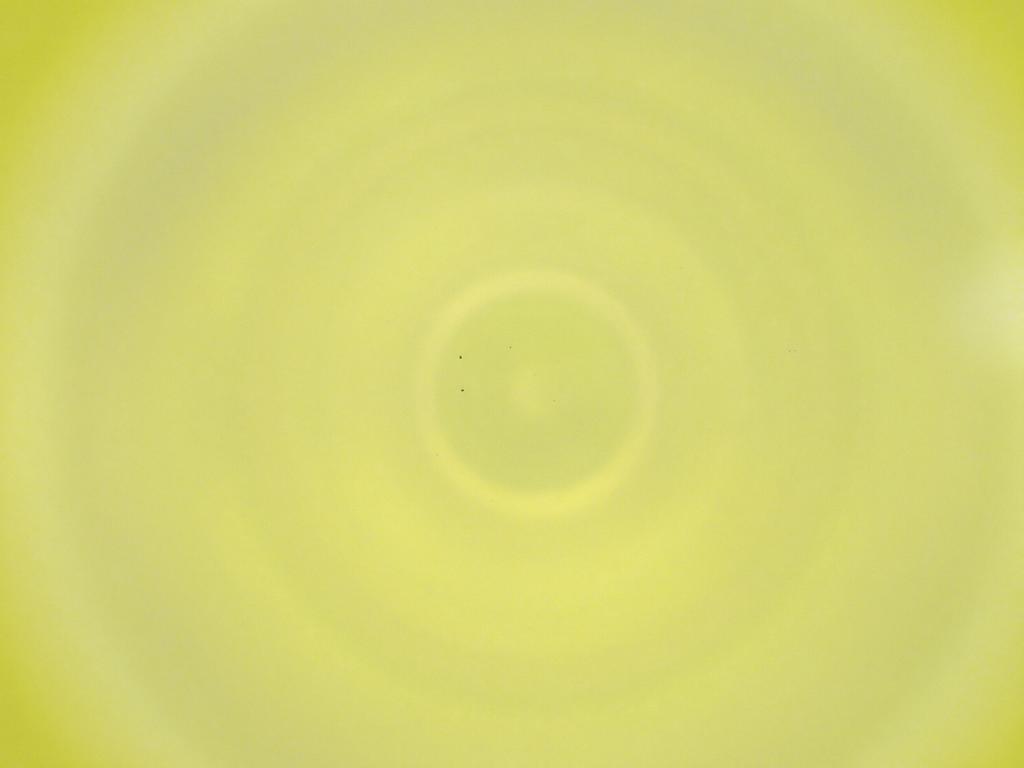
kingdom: Animalia
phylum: Arthropoda
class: Insecta
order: Diptera
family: Cecidomyiidae
